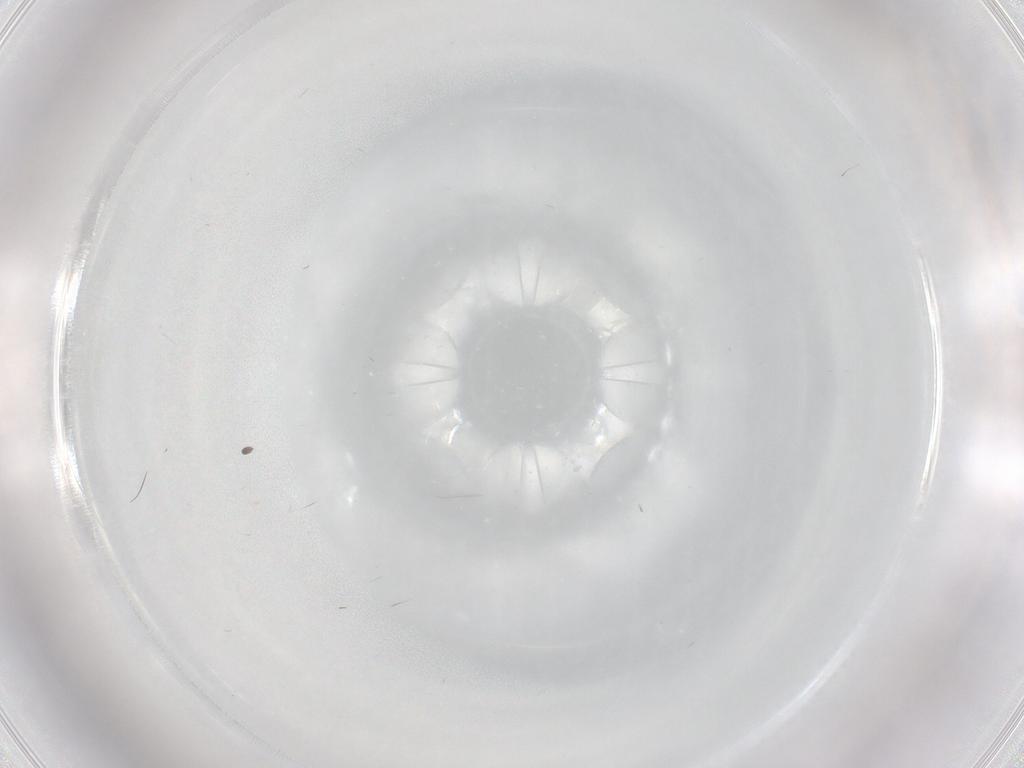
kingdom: Animalia
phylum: Arthropoda
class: Insecta
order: Diptera
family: Limoniidae
